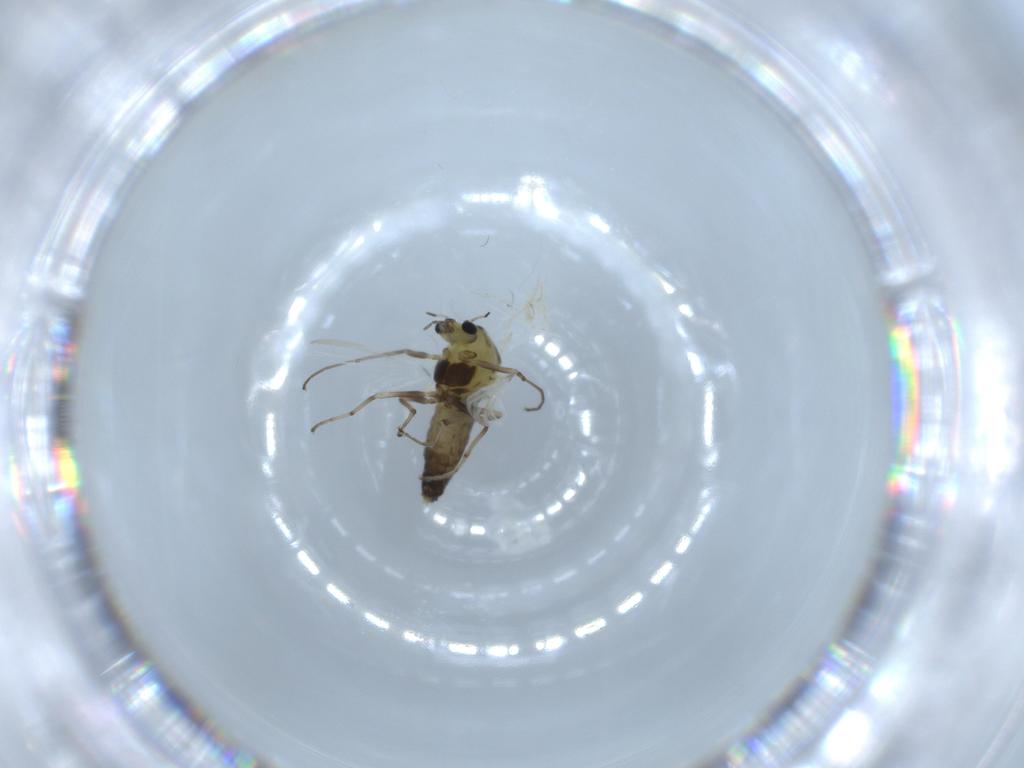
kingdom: Animalia
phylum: Arthropoda
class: Insecta
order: Diptera
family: Chironomidae
